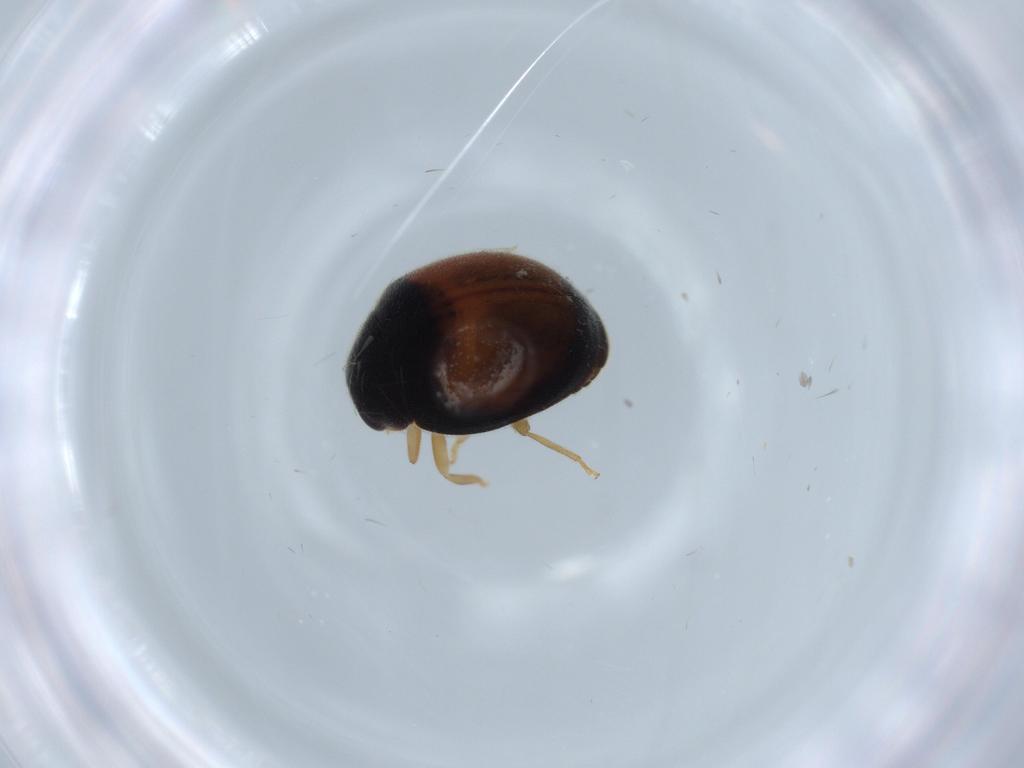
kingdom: Animalia
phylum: Arthropoda
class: Insecta
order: Coleoptera
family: Coccinellidae
